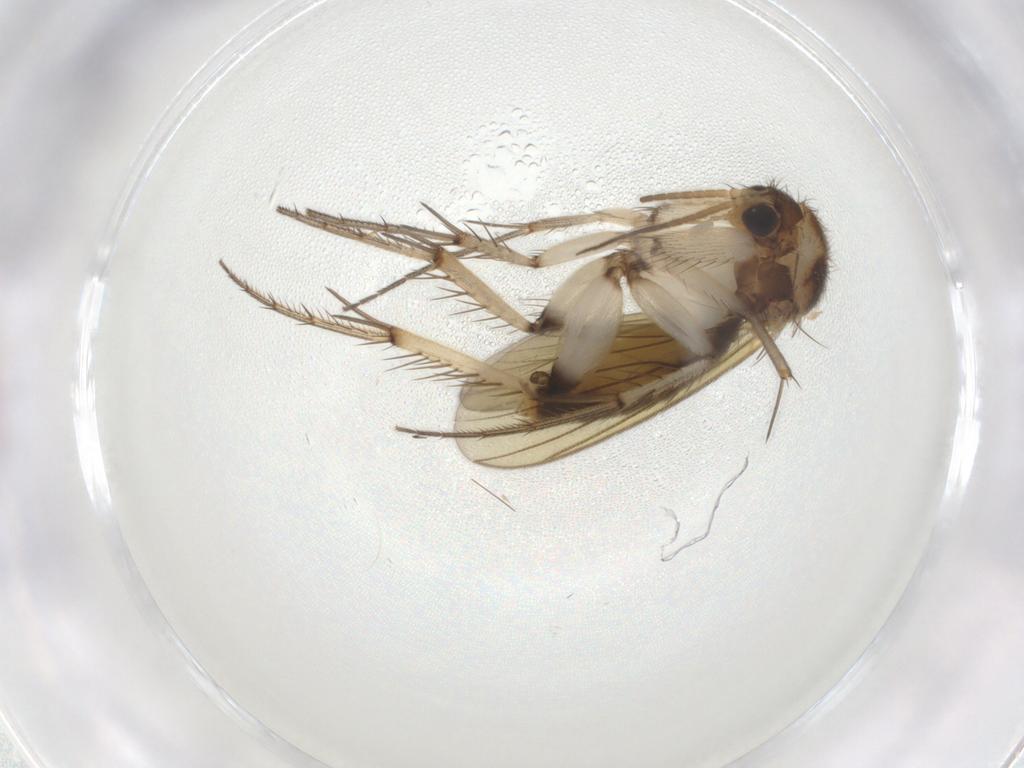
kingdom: Animalia
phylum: Arthropoda
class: Insecta
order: Diptera
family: Mycetophilidae
